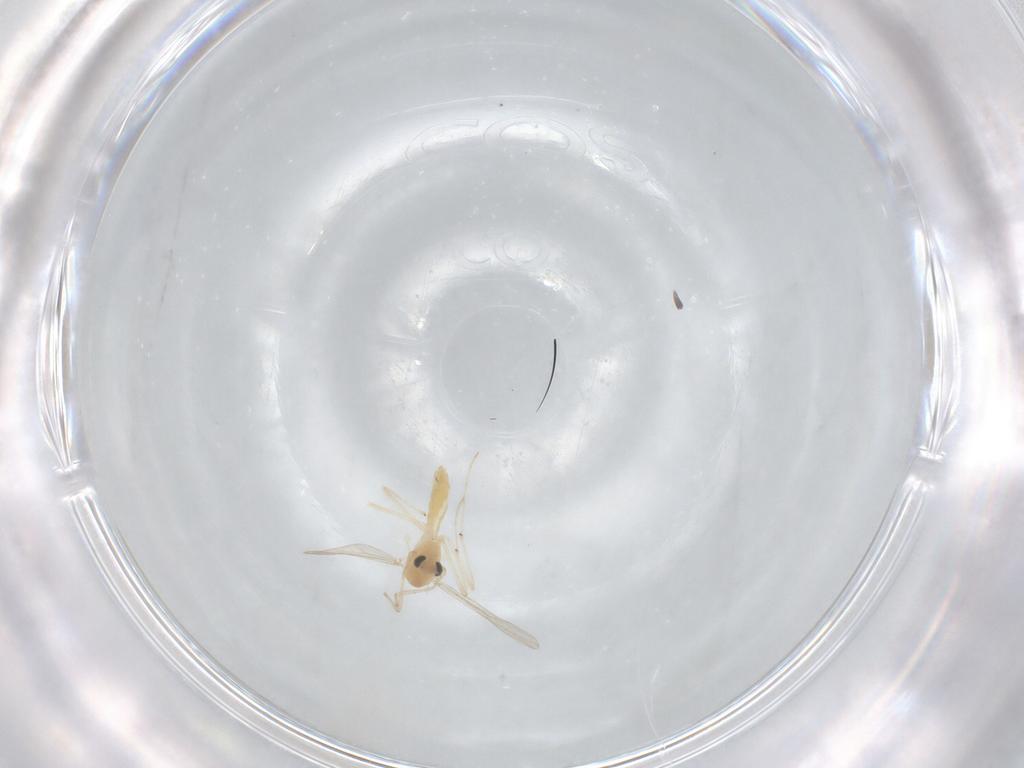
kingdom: Animalia
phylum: Arthropoda
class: Insecta
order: Diptera
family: Chironomidae
